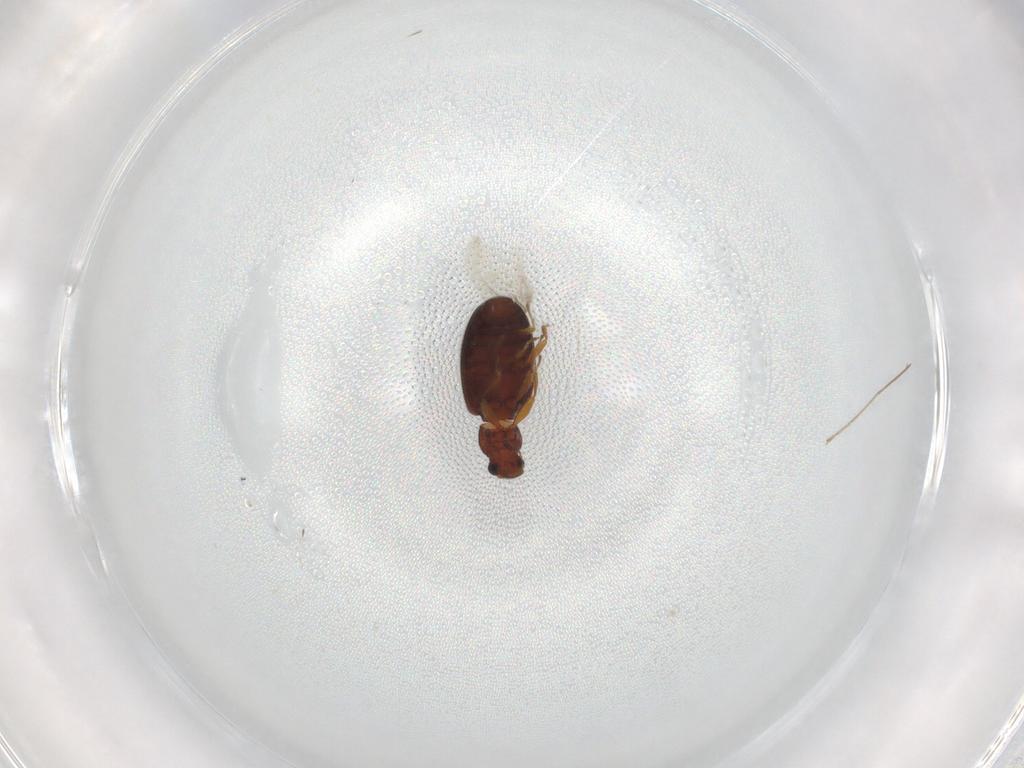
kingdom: Animalia
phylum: Arthropoda
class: Insecta
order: Coleoptera
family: Latridiidae
